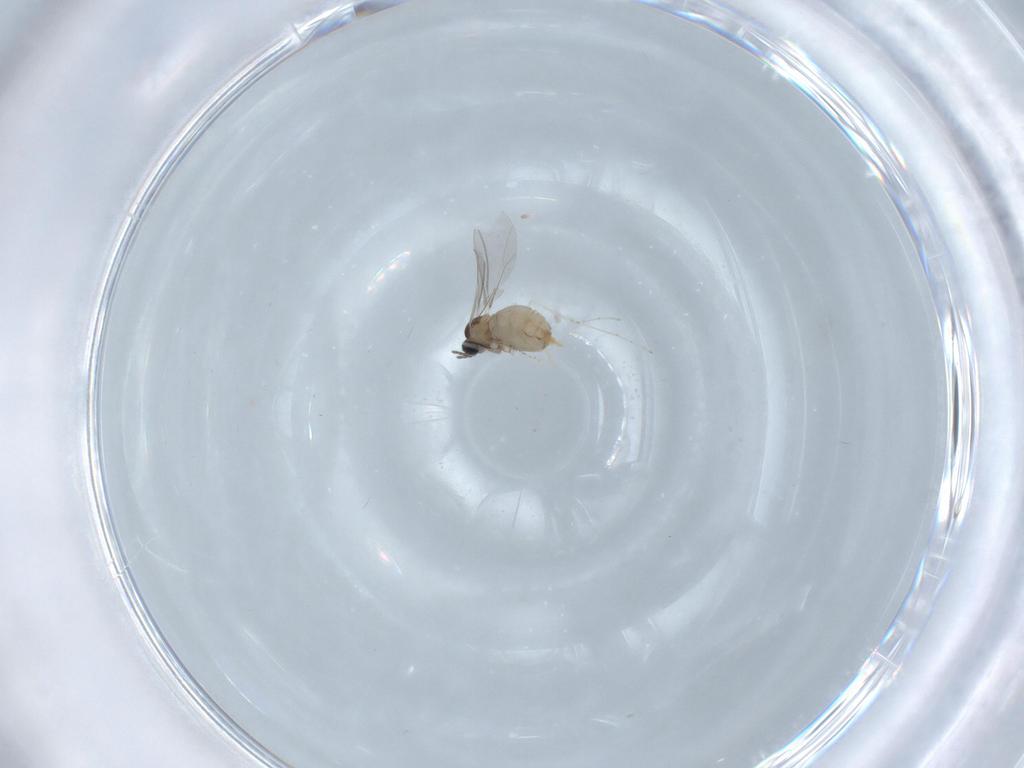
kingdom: Animalia
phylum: Arthropoda
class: Insecta
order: Diptera
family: Cecidomyiidae
